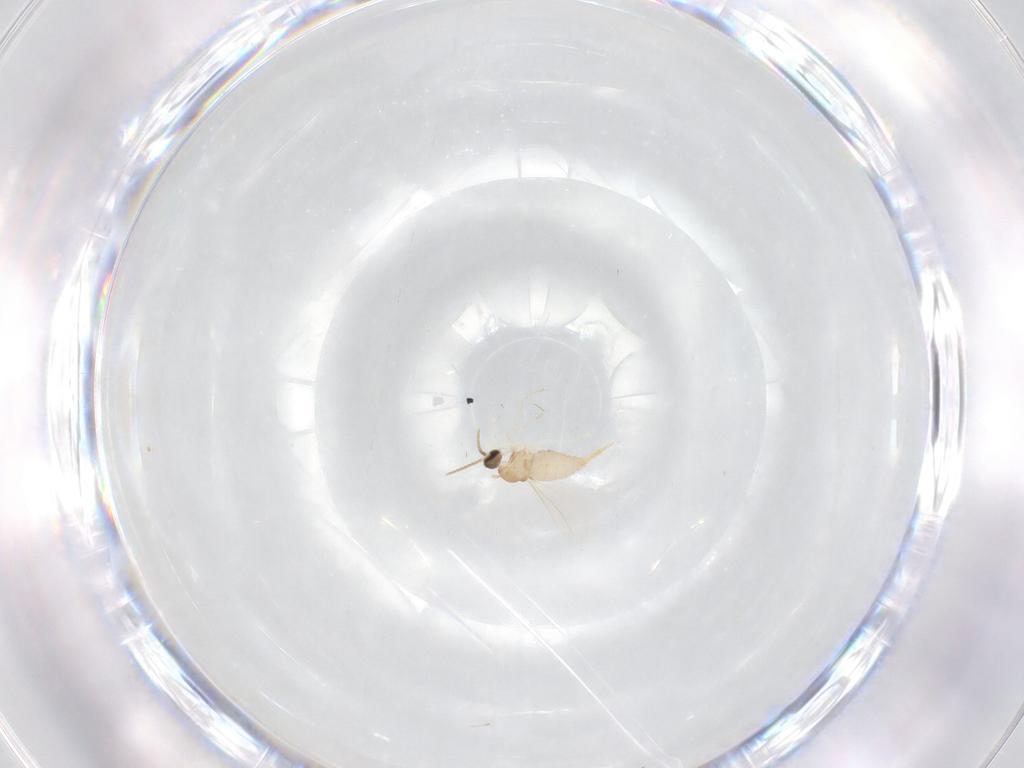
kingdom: Animalia
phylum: Arthropoda
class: Insecta
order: Diptera
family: Cecidomyiidae
